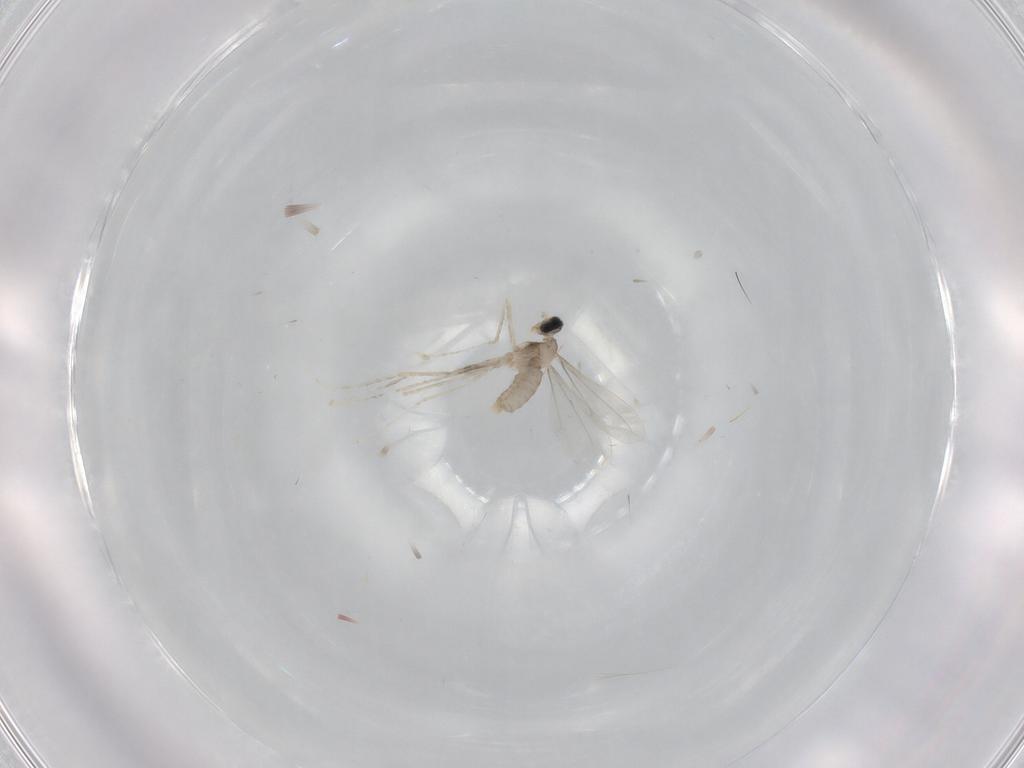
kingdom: Animalia
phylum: Arthropoda
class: Insecta
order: Diptera
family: Cecidomyiidae
